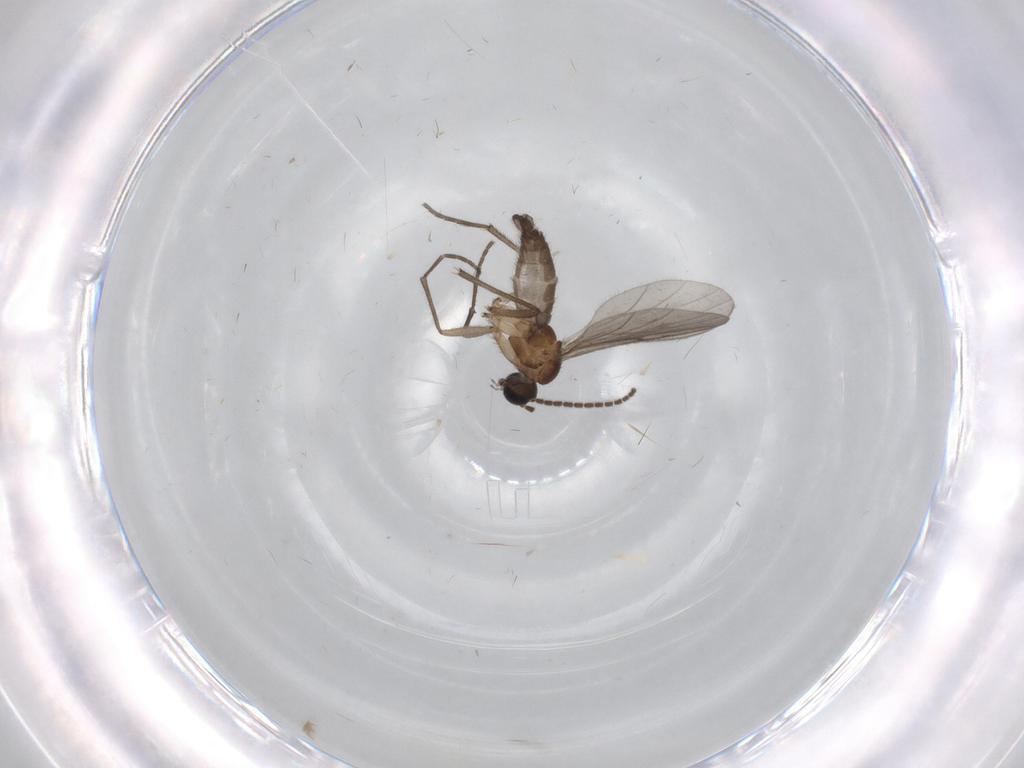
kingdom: Animalia
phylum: Arthropoda
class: Insecta
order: Diptera
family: Sciaridae
